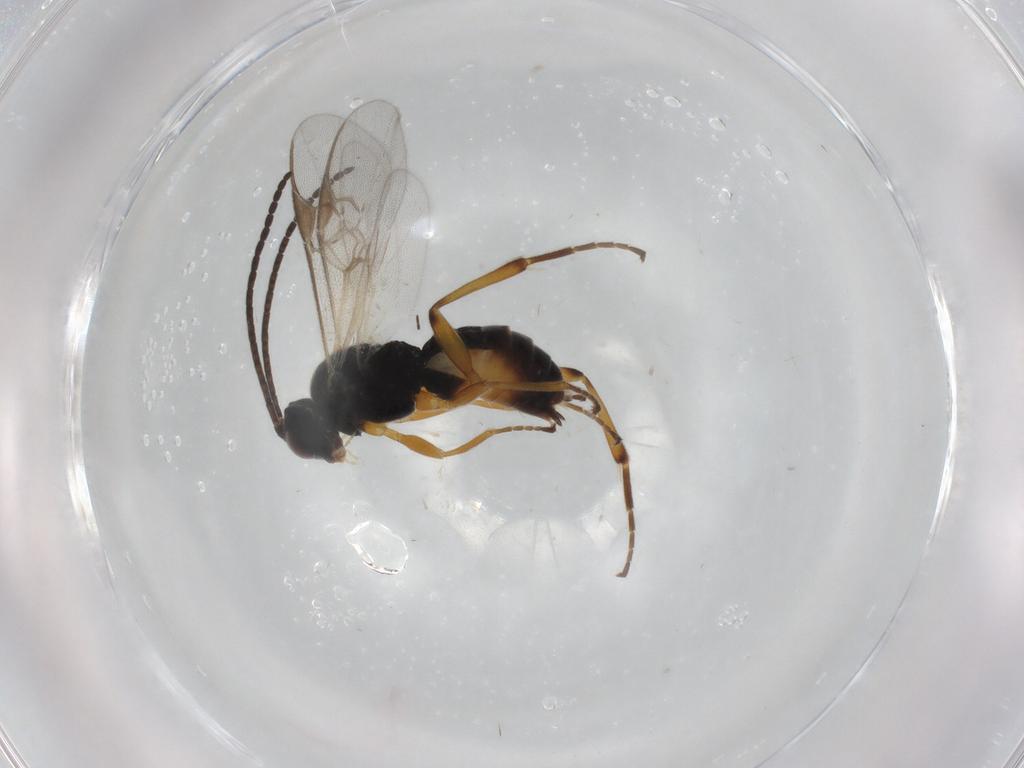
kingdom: Animalia
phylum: Arthropoda
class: Insecta
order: Hymenoptera
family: Braconidae
